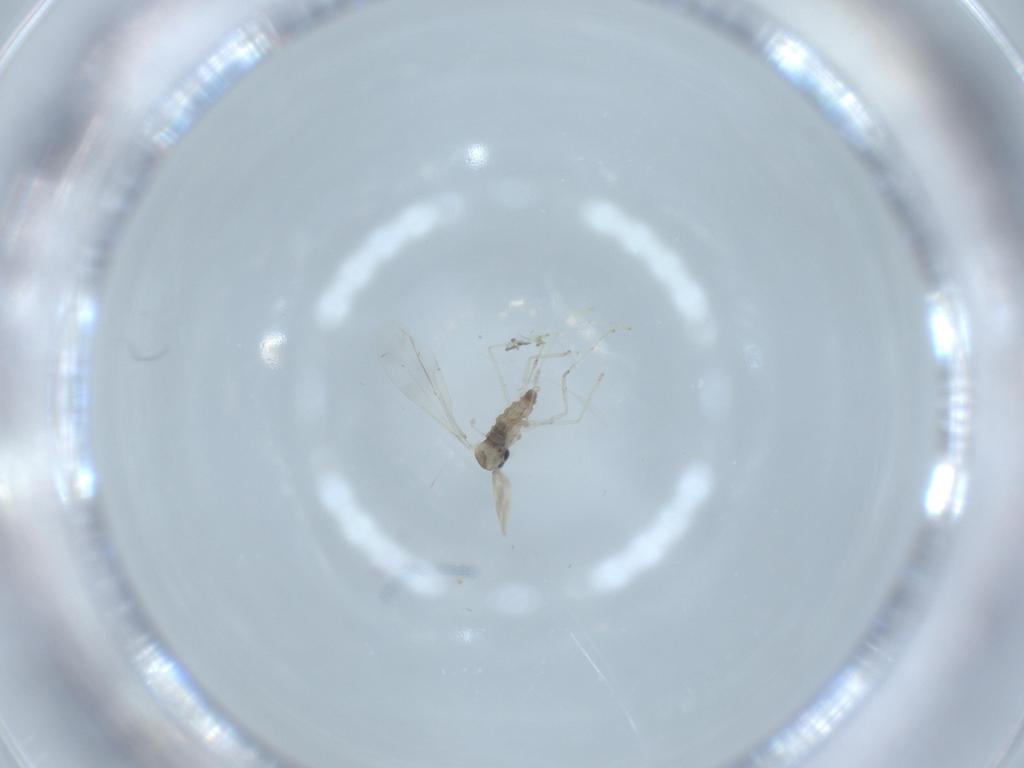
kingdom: Animalia
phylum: Arthropoda
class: Insecta
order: Diptera
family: Cecidomyiidae
